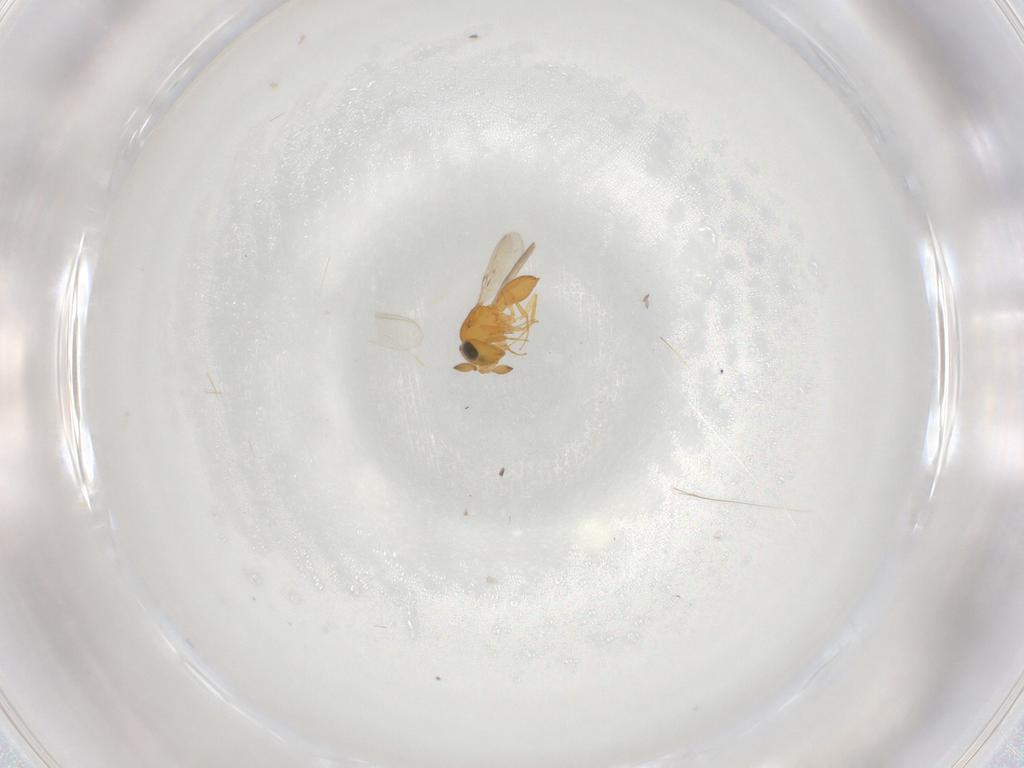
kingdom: Animalia
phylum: Arthropoda
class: Insecta
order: Hymenoptera
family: Scelionidae
